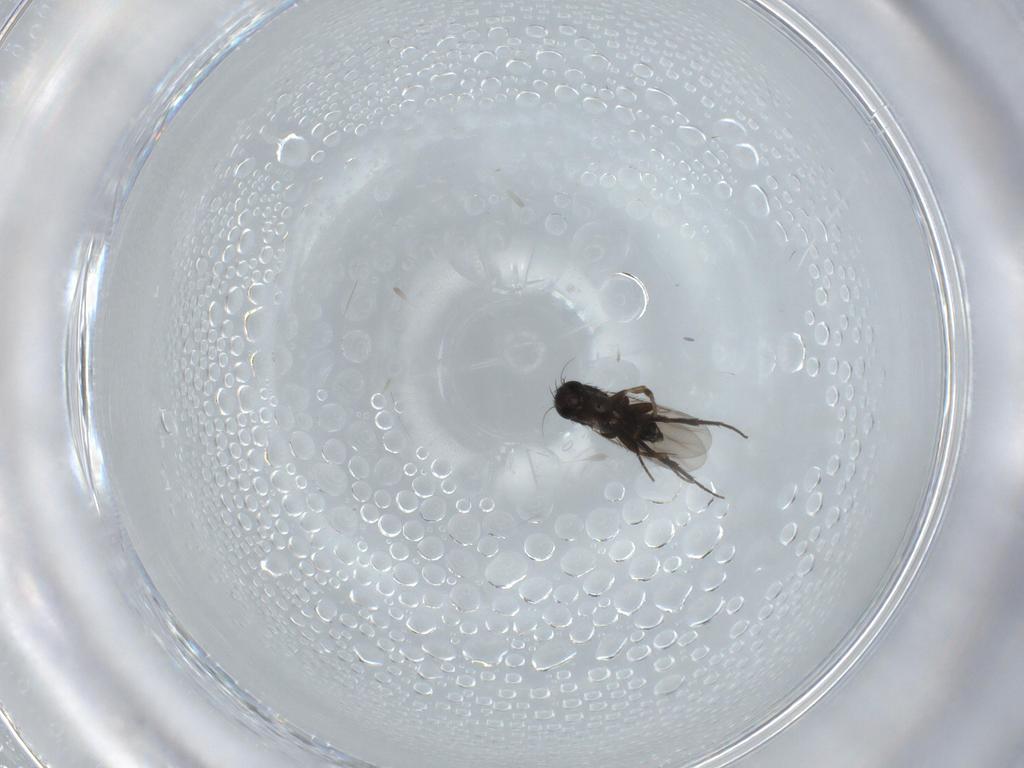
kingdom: Animalia
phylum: Arthropoda
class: Insecta
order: Diptera
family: Phoridae
